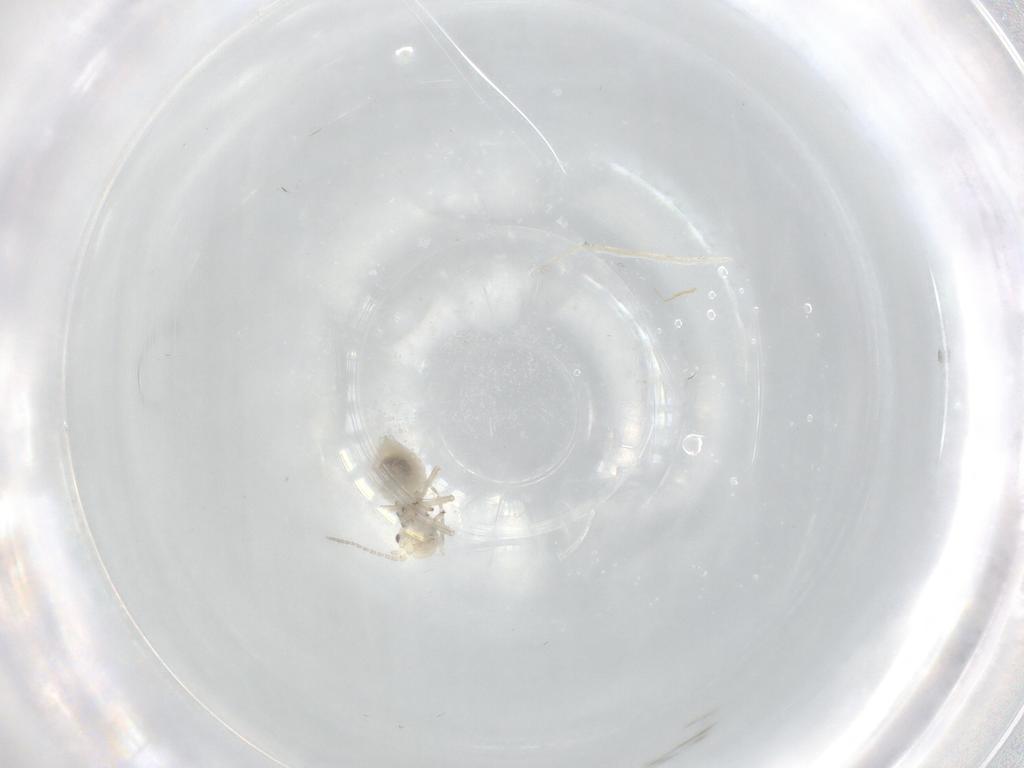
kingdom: Animalia
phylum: Arthropoda
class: Insecta
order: Psocodea
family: Amphipsocidae
